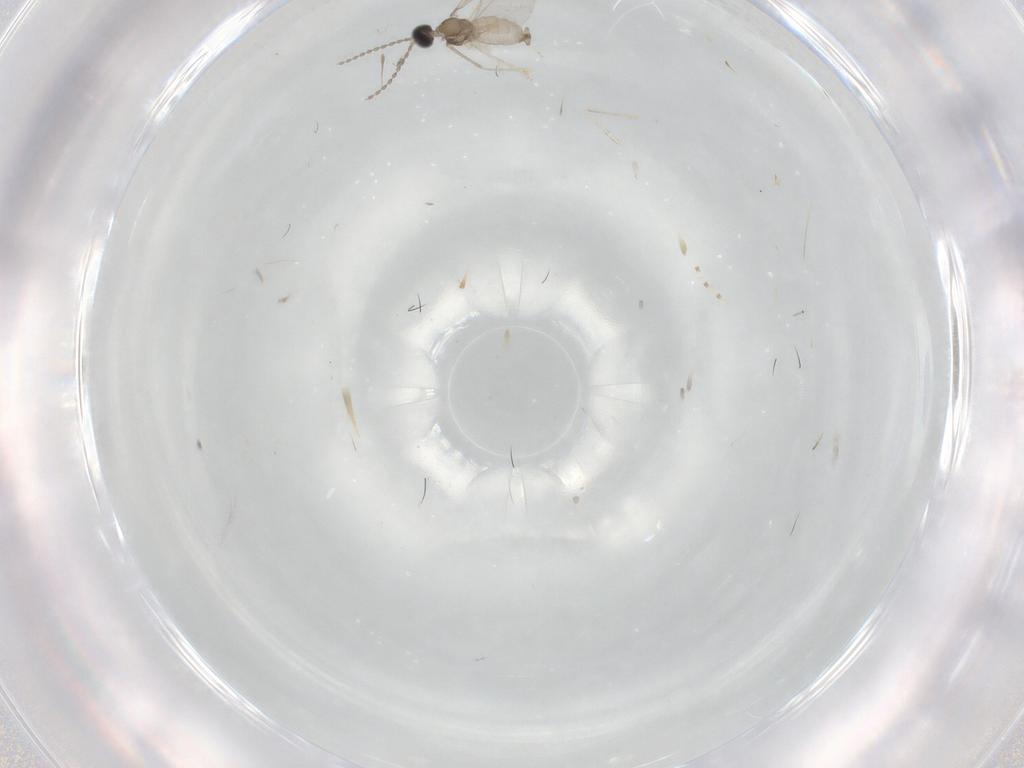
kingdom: Animalia
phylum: Arthropoda
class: Insecta
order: Diptera
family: Cecidomyiidae
